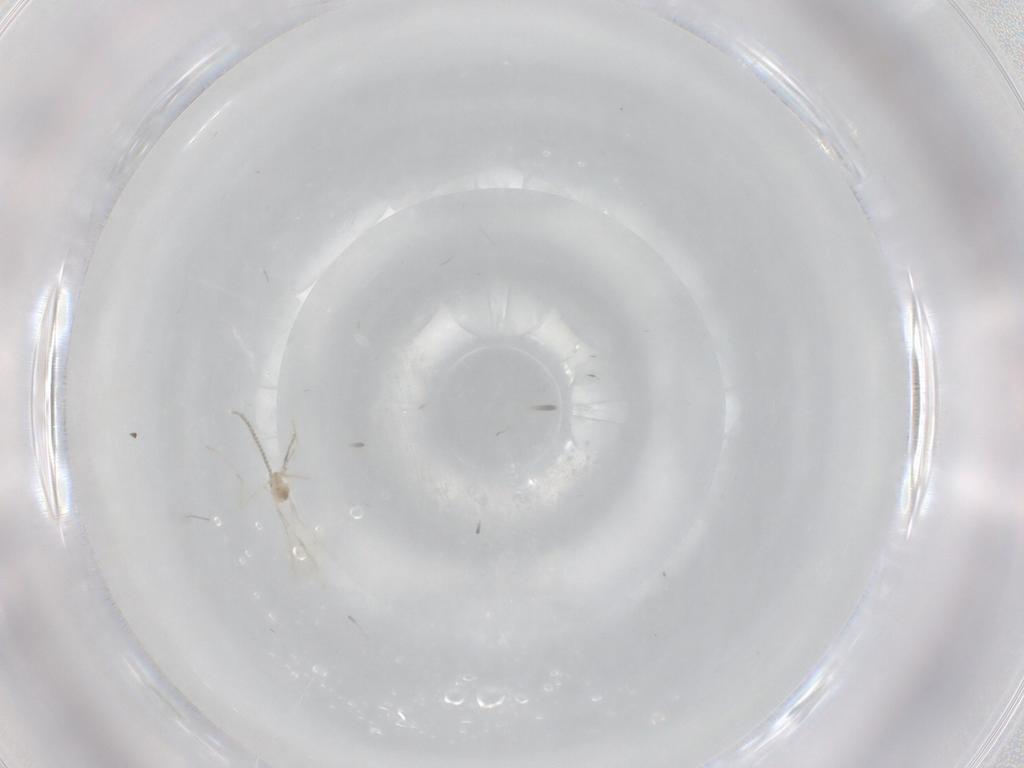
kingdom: Animalia
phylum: Arthropoda
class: Insecta
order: Diptera
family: Cecidomyiidae
